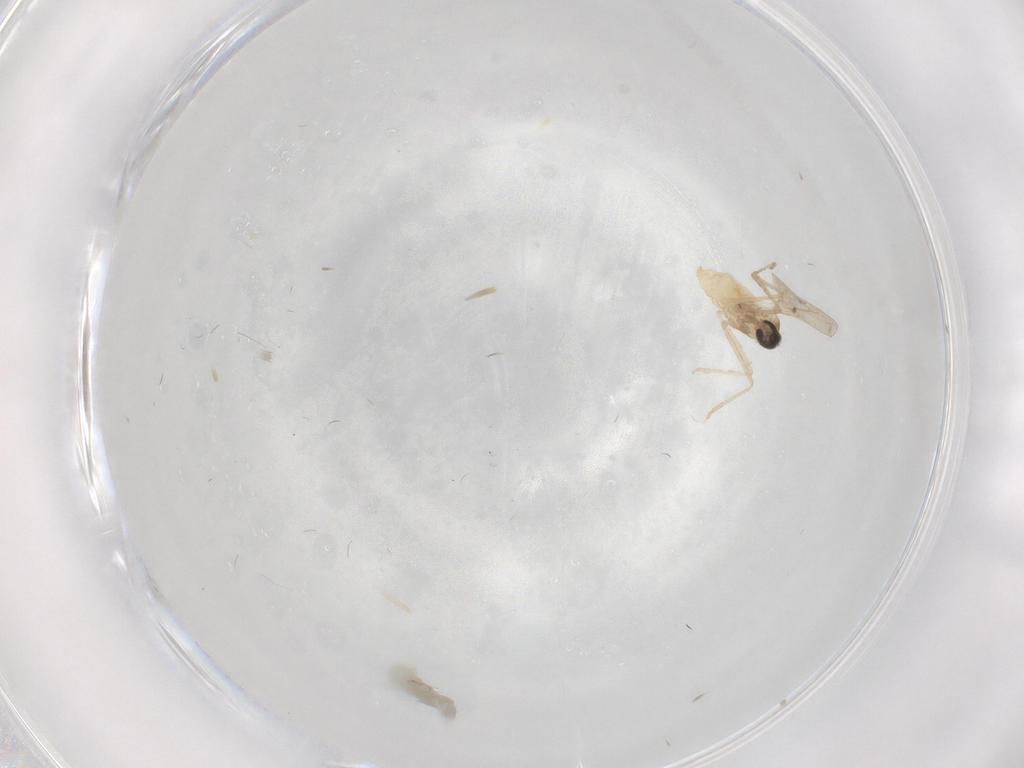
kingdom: Animalia
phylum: Arthropoda
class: Insecta
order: Diptera
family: Cecidomyiidae
